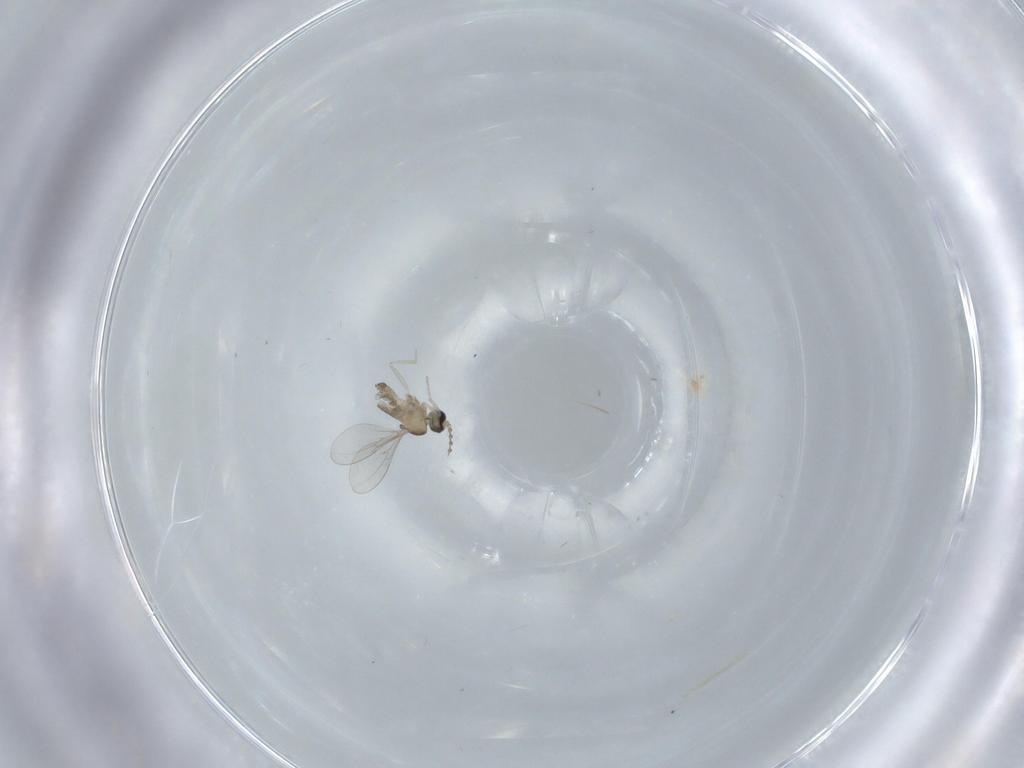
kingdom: Animalia
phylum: Arthropoda
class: Insecta
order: Diptera
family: Cecidomyiidae
